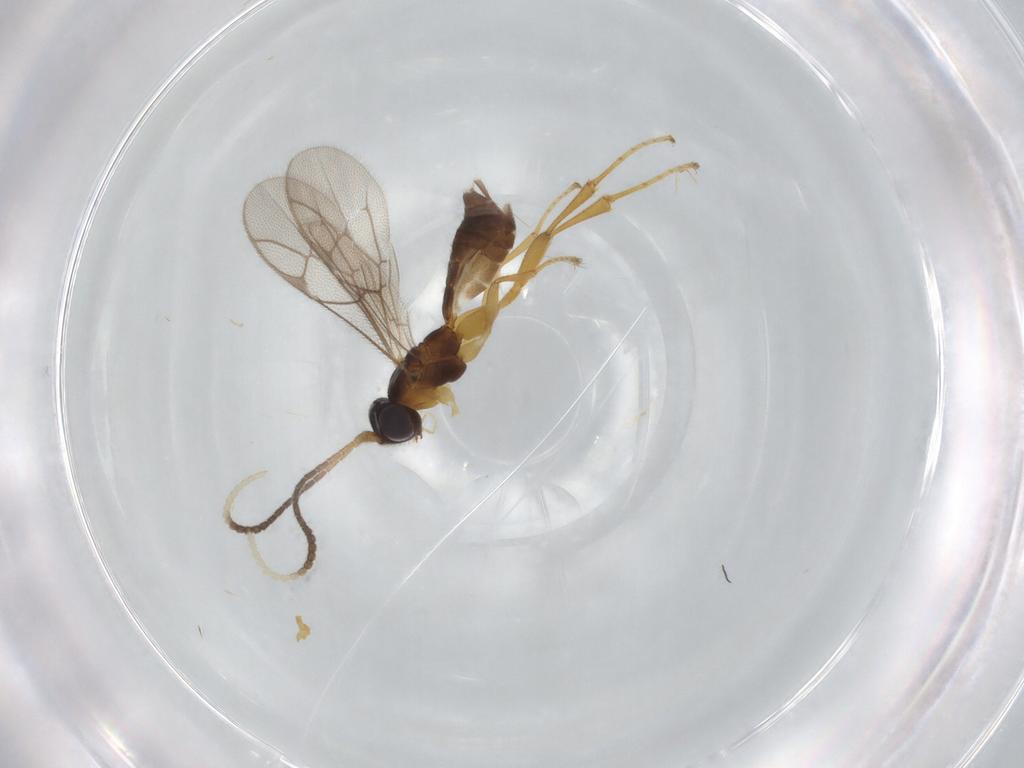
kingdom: Animalia
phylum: Arthropoda
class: Insecta
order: Hymenoptera
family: Ichneumonidae
